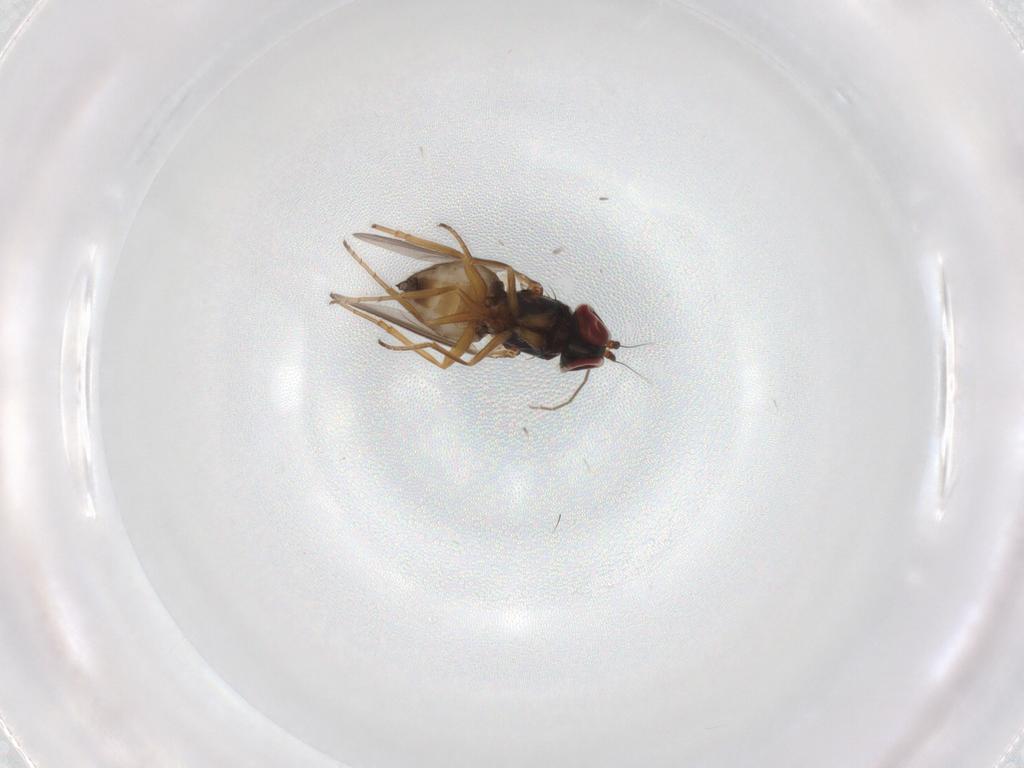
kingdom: Animalia
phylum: Arthropoda
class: Insecta
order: Diptera
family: Dolichopodidae
